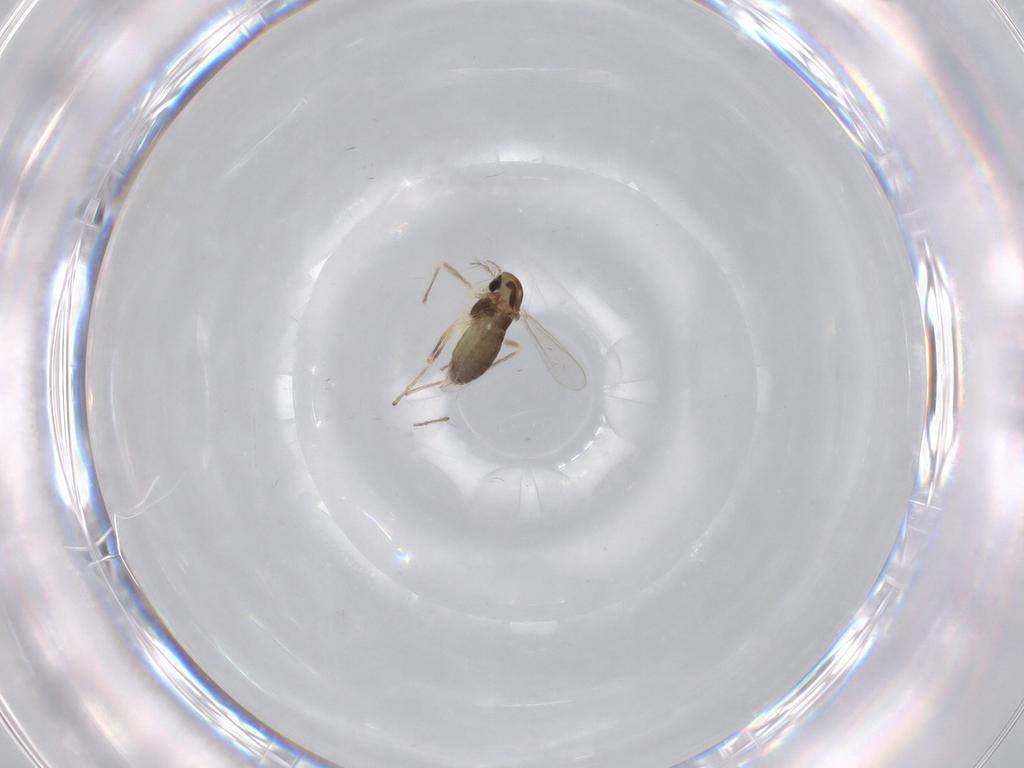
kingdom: Animalia
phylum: Arthropoda
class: Insecta
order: Diptera
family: Chironomidae
